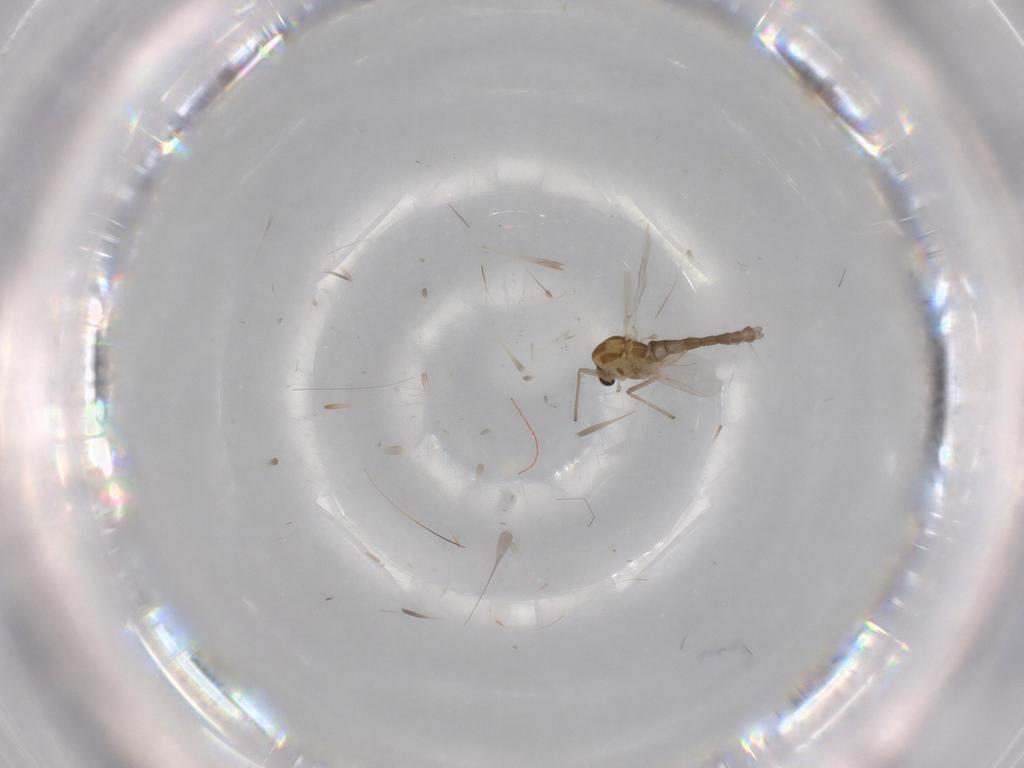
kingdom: Animalia
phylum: Arthropoda
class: Insecta
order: Diptera
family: Chironomidae
